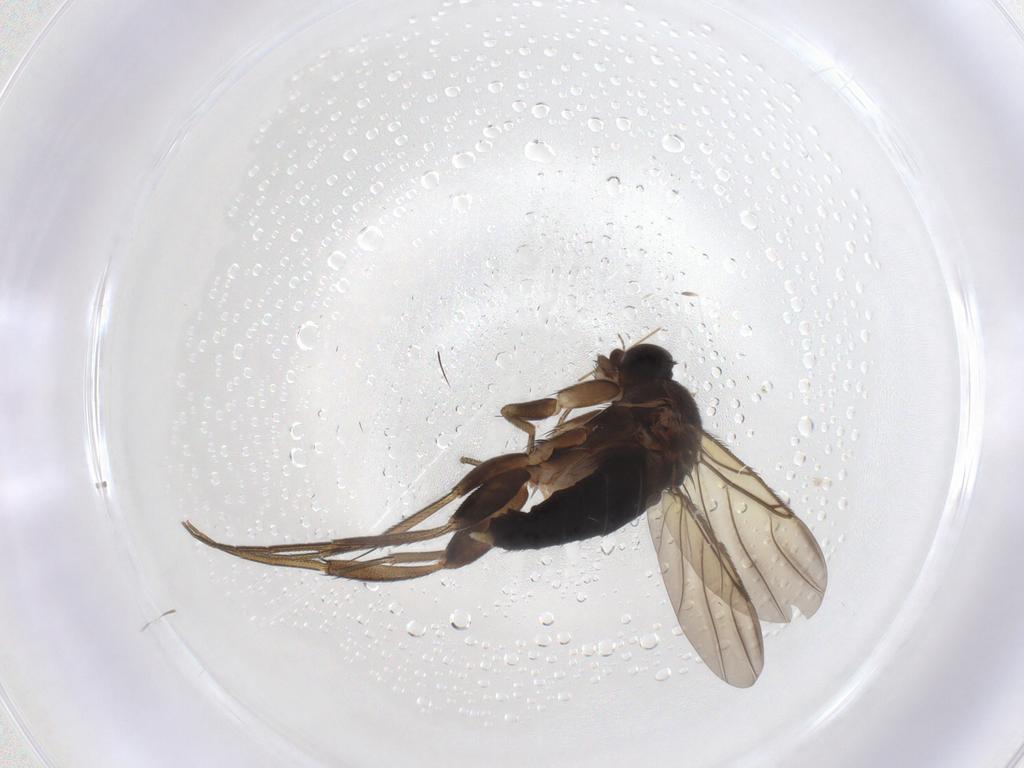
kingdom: Animalia
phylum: Arthropoda
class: Insecta
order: Diptera
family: Phoridae
